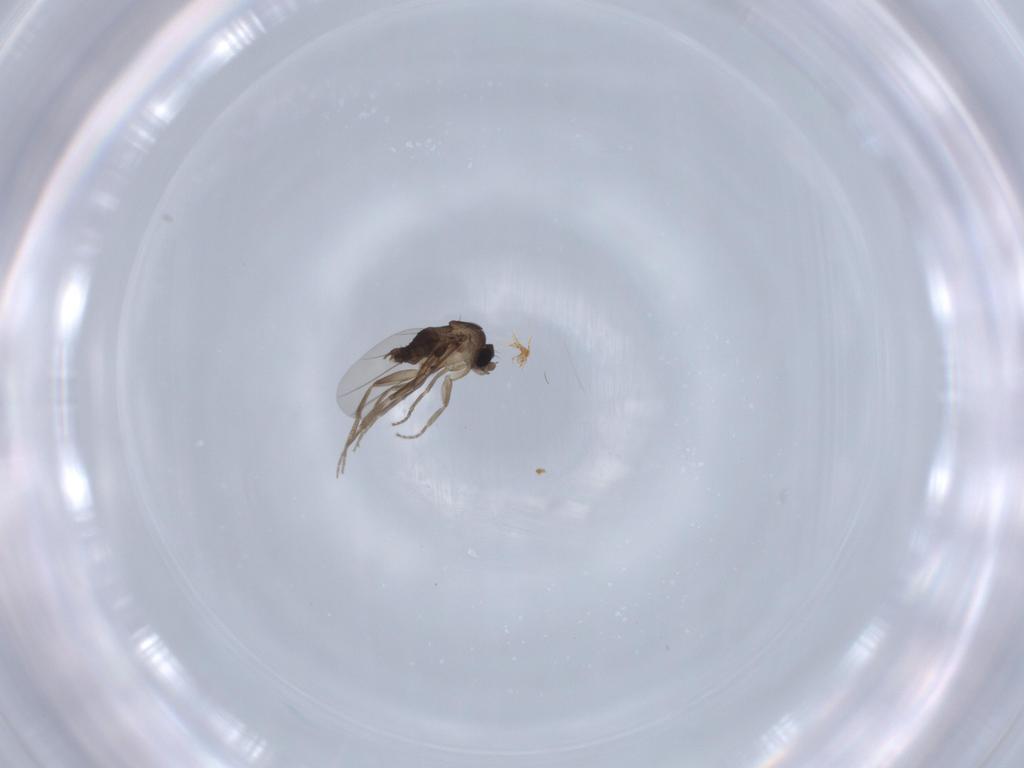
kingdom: Animalia
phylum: Arthropoda
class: Insecta
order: Diptera
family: Phoridae
